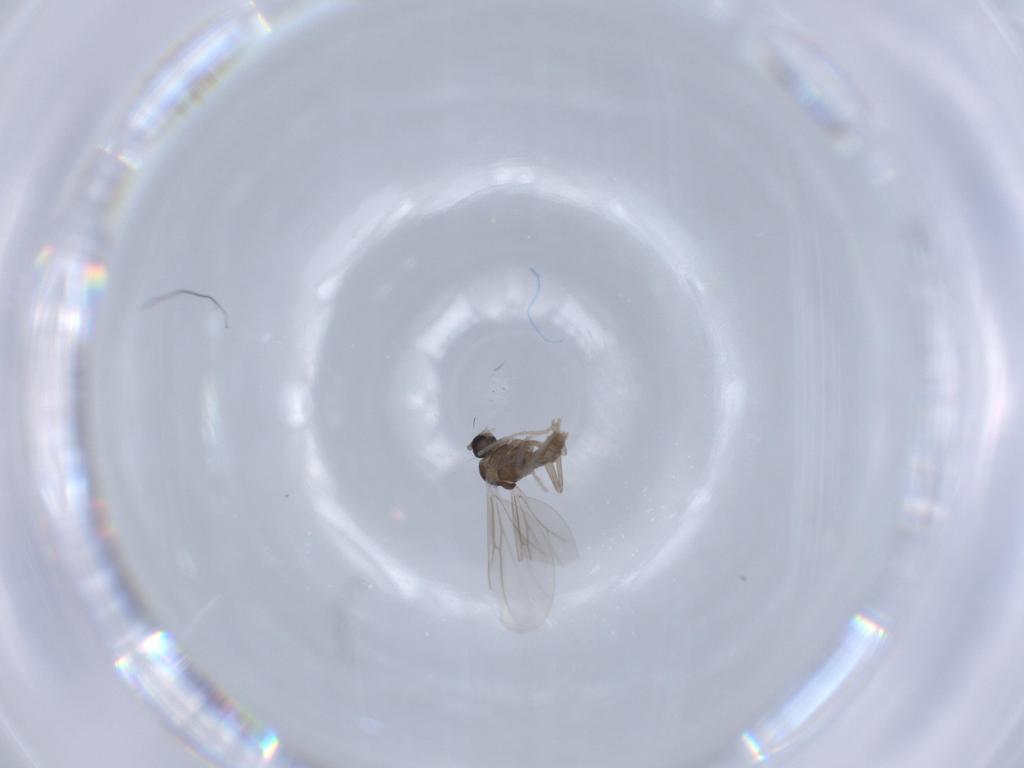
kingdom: Animalia
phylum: Arthropoda
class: Insecta
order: Diptera
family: Cecidomyiidae
